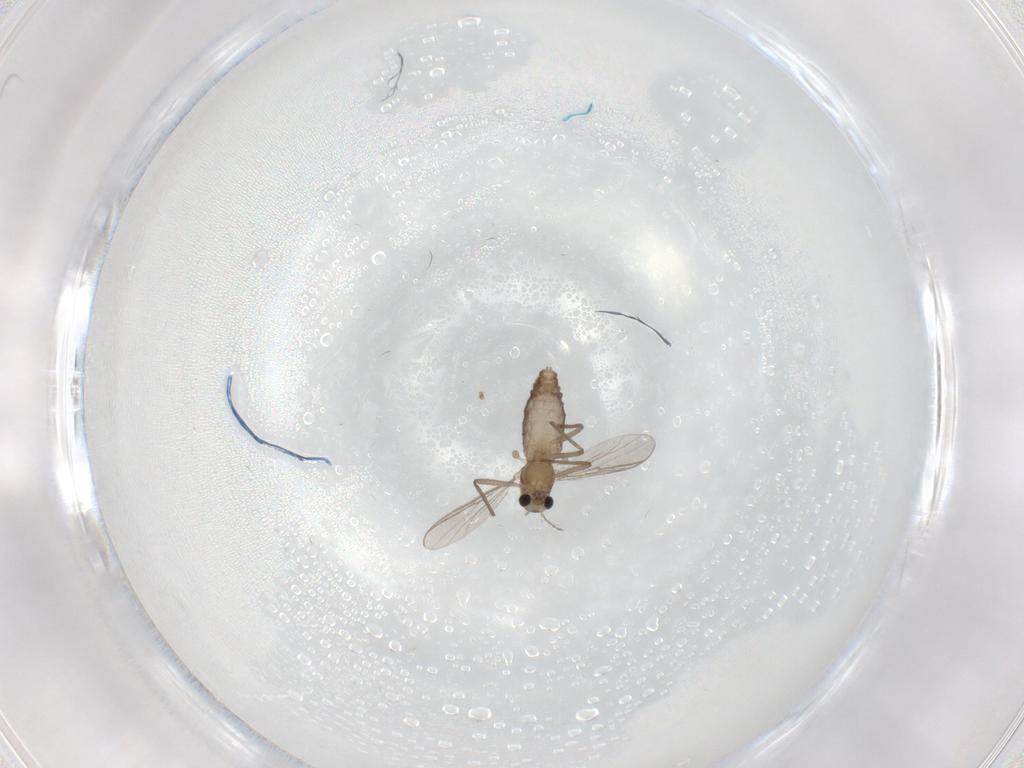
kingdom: Animalia
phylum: Arthropoda
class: Insecta
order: Diptera
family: Chironomidae
